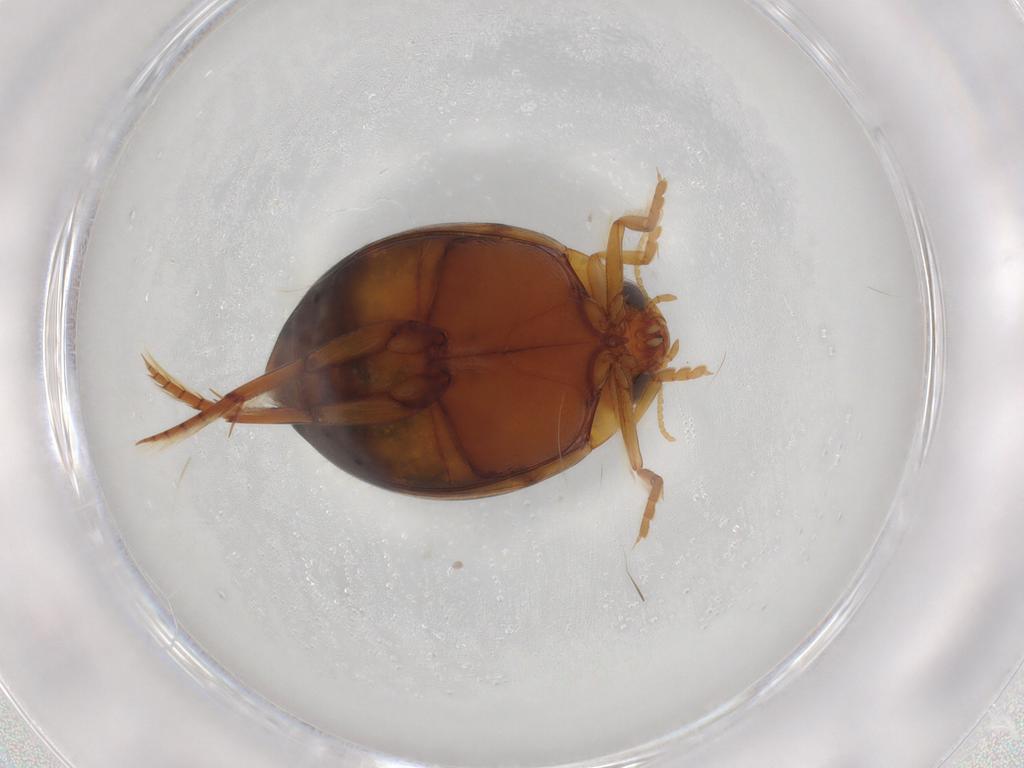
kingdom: Animalia
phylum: Arthropoda
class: Insecta
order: Coleoptera
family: Dytiscidae
